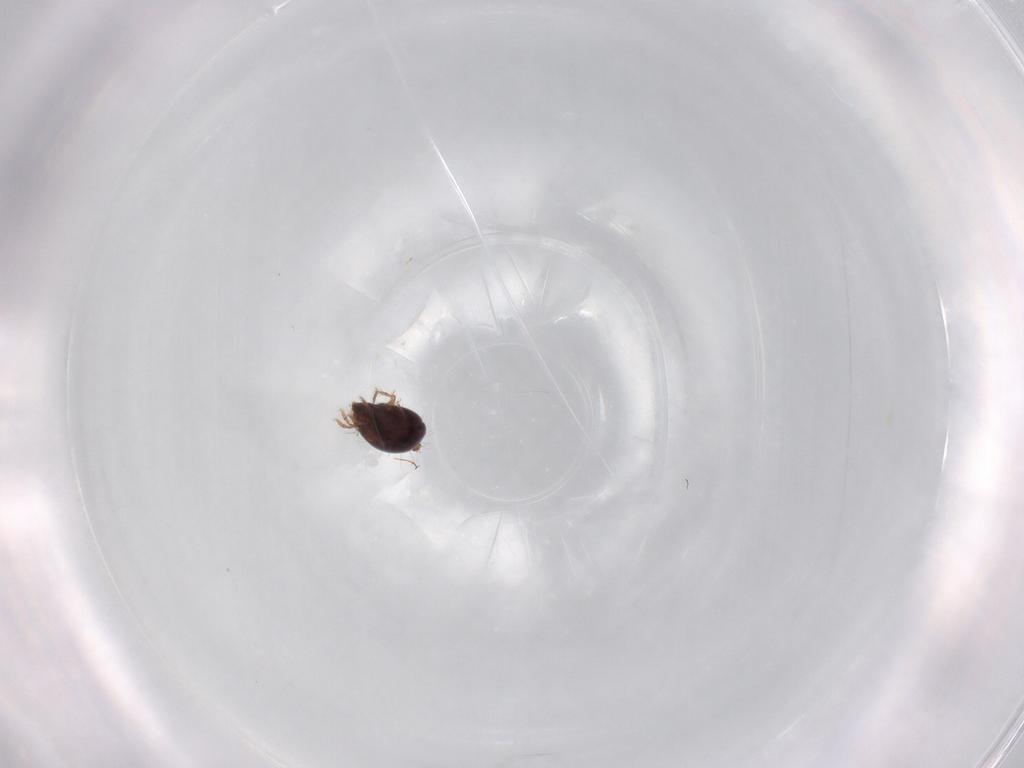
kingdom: Animalia
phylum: Arthropoda
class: Arachnida
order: Sarcoptiformes
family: Humerobatidae
